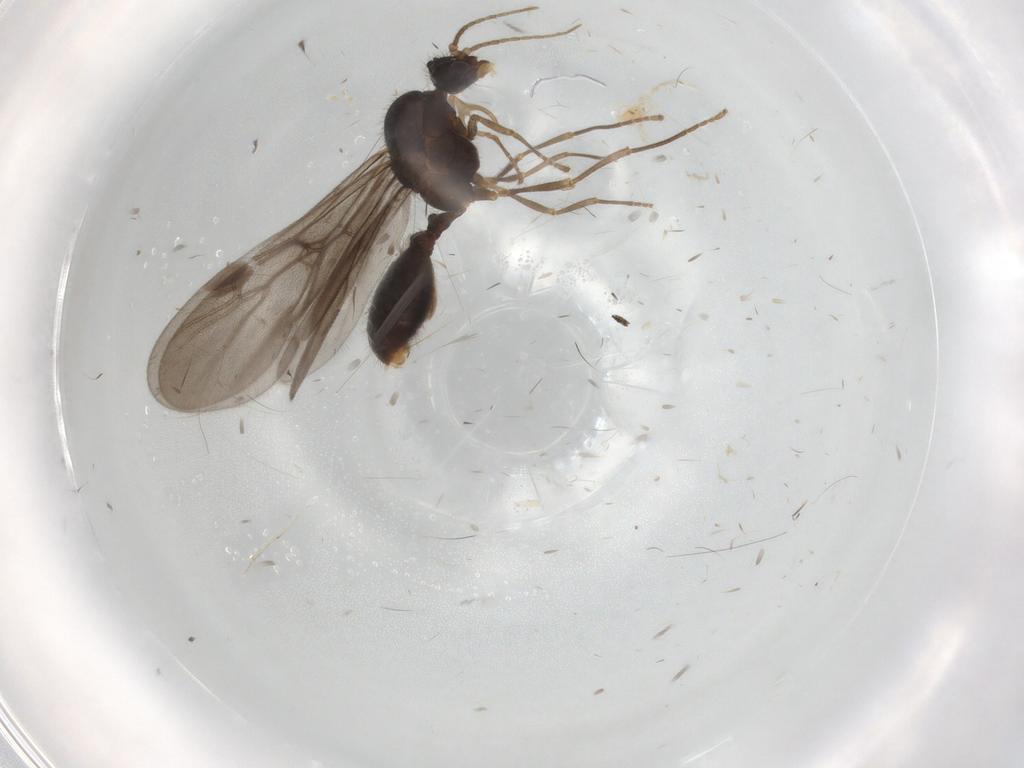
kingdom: Animalia
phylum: Arthropoda
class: Insecta
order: Hymenoptera
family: Formicidae
